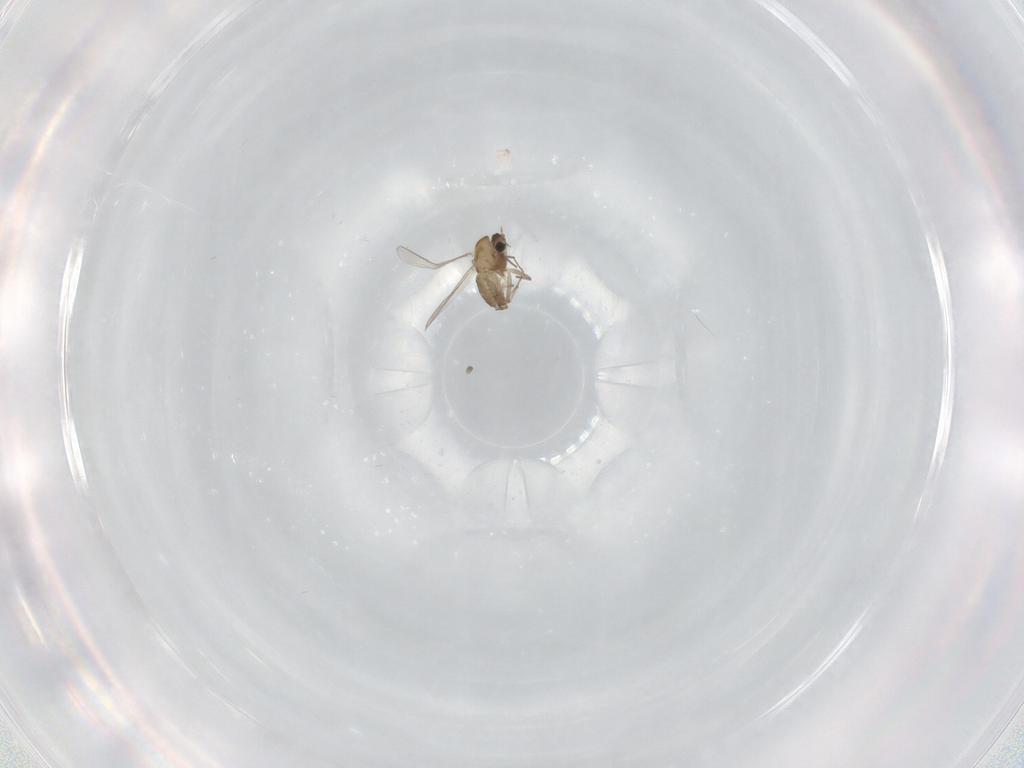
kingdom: Animalia
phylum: Arthropoda
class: Insecta
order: Diptera
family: Chironomidae
